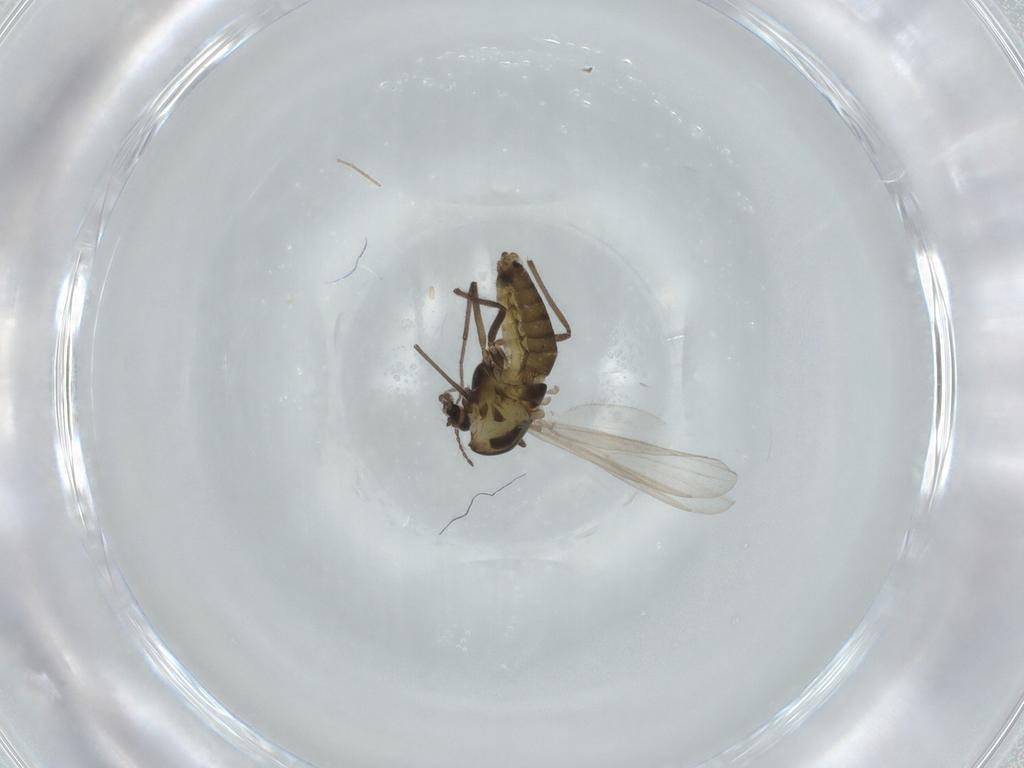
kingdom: Animalia
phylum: Arthropoda
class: Insecta
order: Diptera
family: Chironomidae
